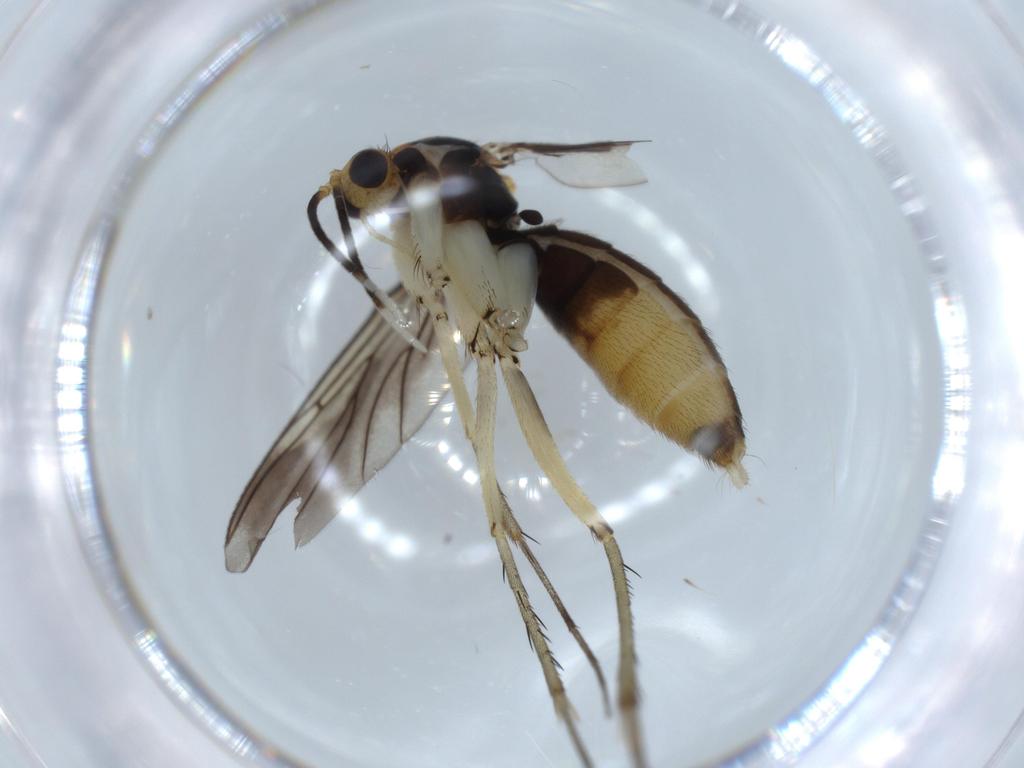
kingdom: Animalia
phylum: Arthropoda
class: Insecta
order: Diptera
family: Mycetophilidae
